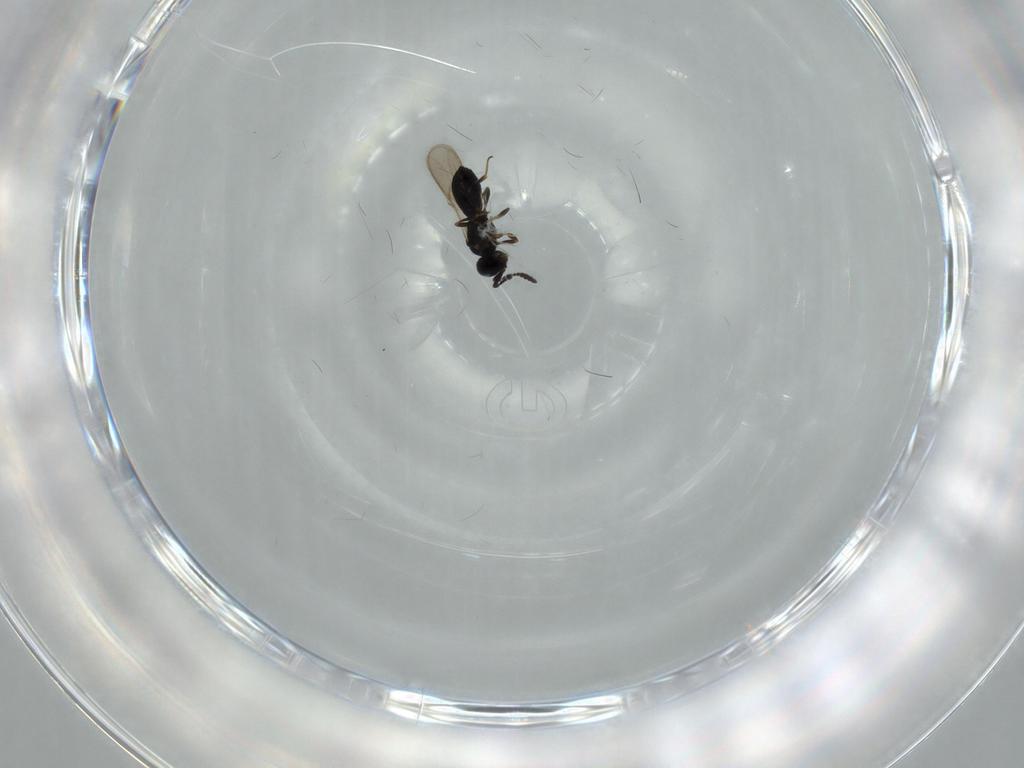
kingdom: Animalia
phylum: Arthropoda
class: Insecta
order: Hymenoptera
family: Scelionidae
